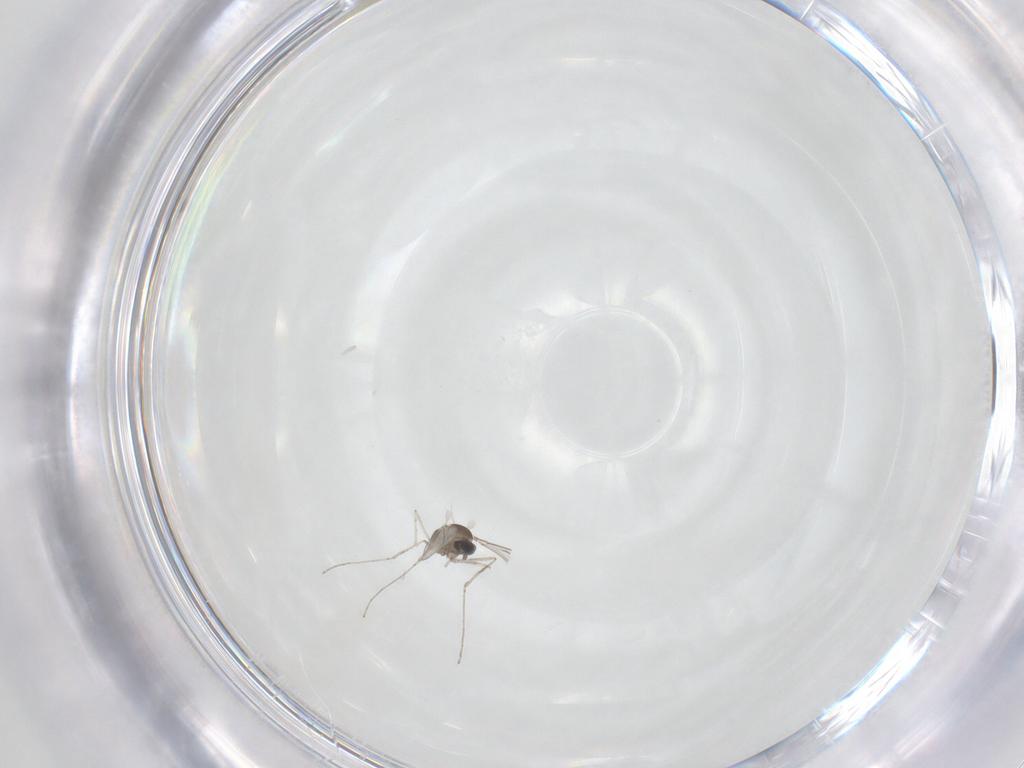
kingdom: Animalia
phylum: Arthropoda
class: Insecta
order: Diptera
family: Cecidomyiidae
